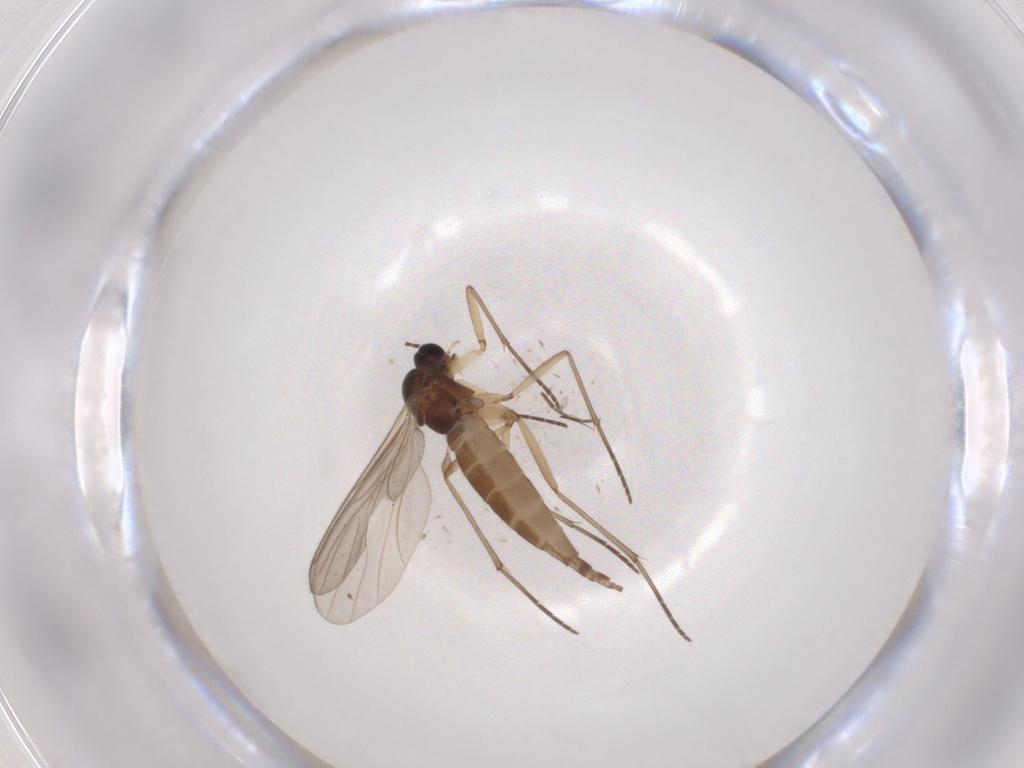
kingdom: Animalia
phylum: Arthropoda
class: Insecta
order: Diptera
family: Sciaridae
